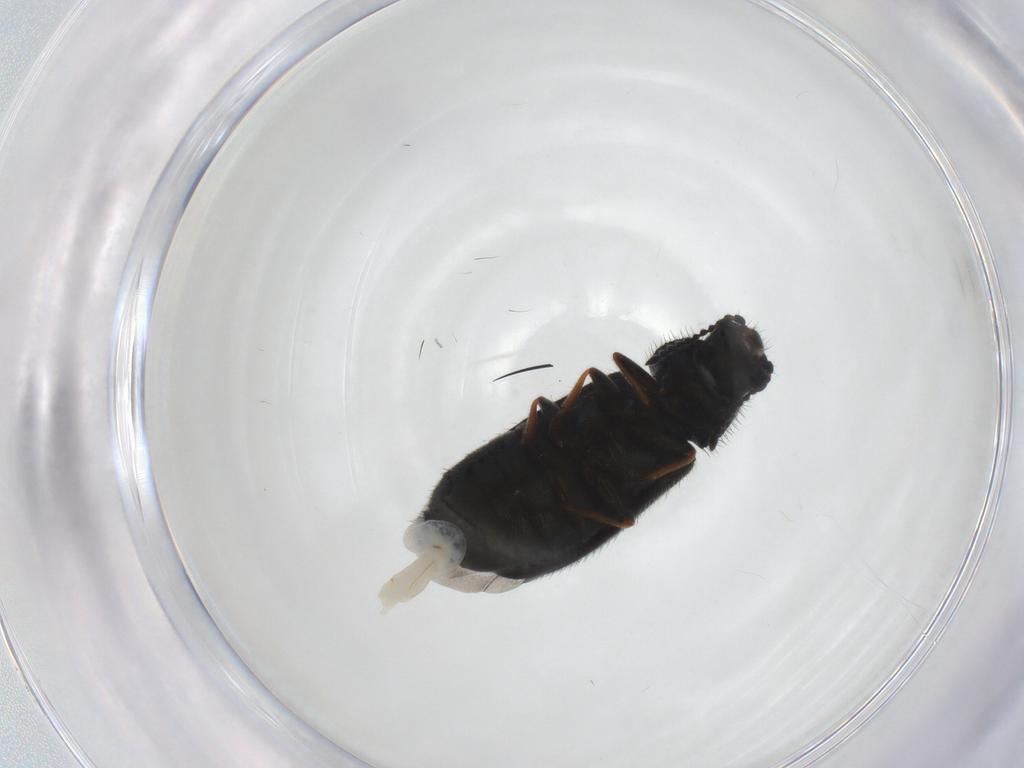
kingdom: Animalia
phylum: Arthropoda
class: Insecta
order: Coleoptera
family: Melyridae
